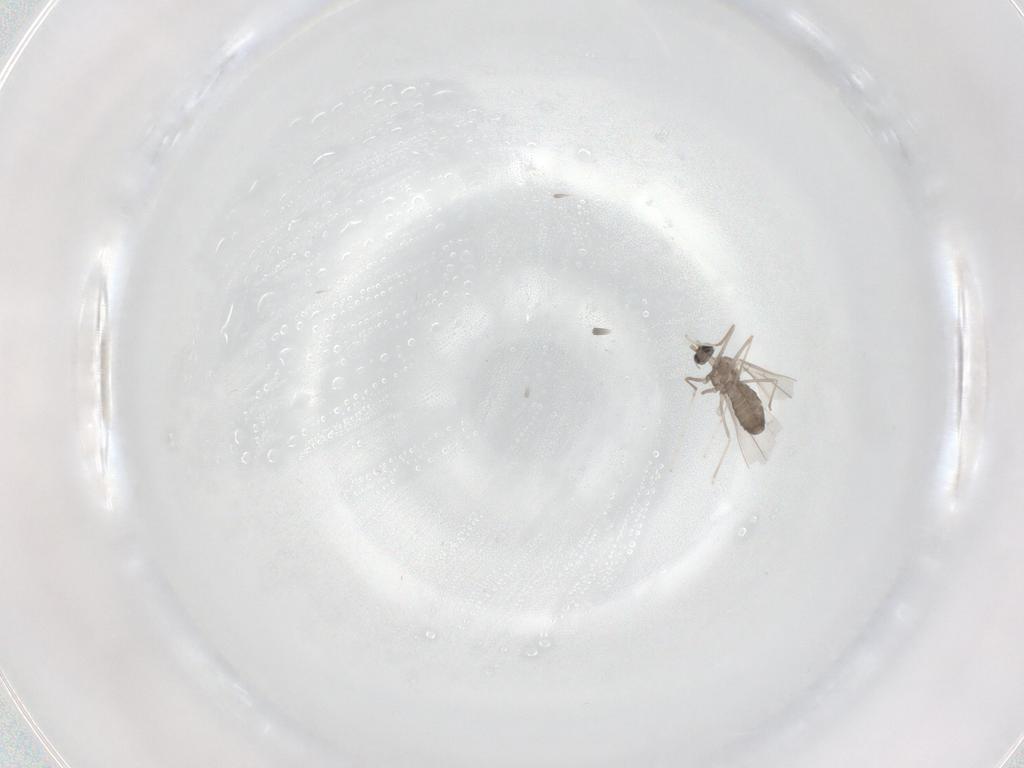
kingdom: Animalia
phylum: Arthropoda
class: Insecta
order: Diptera
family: Cecidomyiidae
